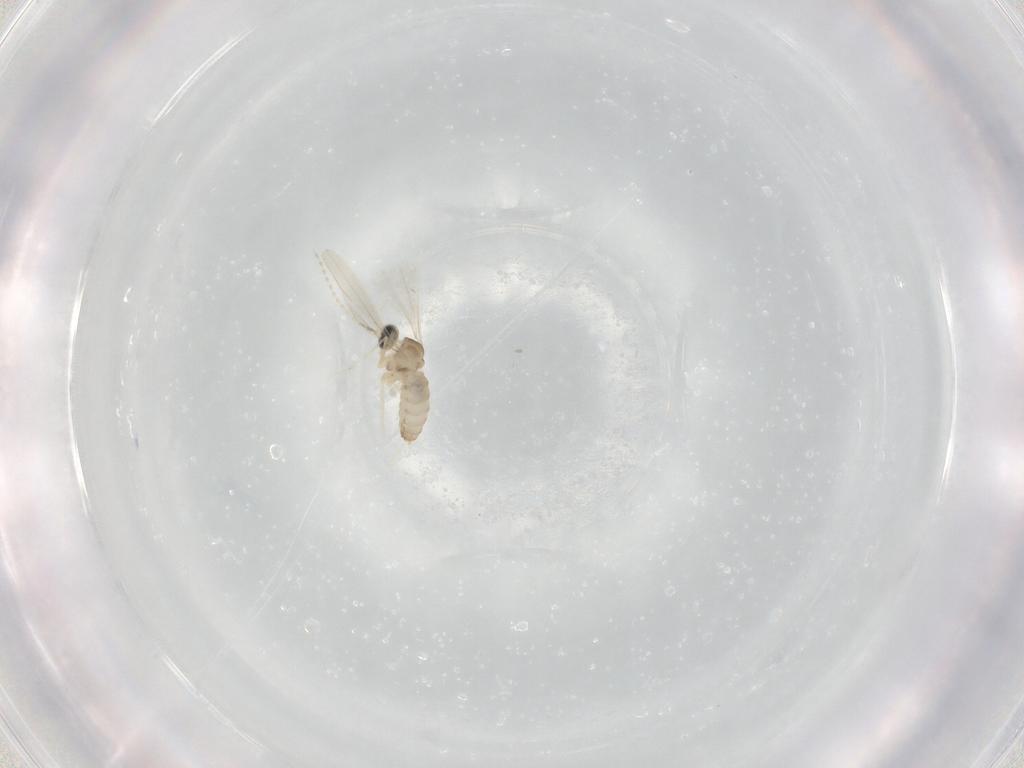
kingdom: Animalia
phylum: Arthropoda
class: Insecta
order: Diptera
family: Cecidomyiidae
